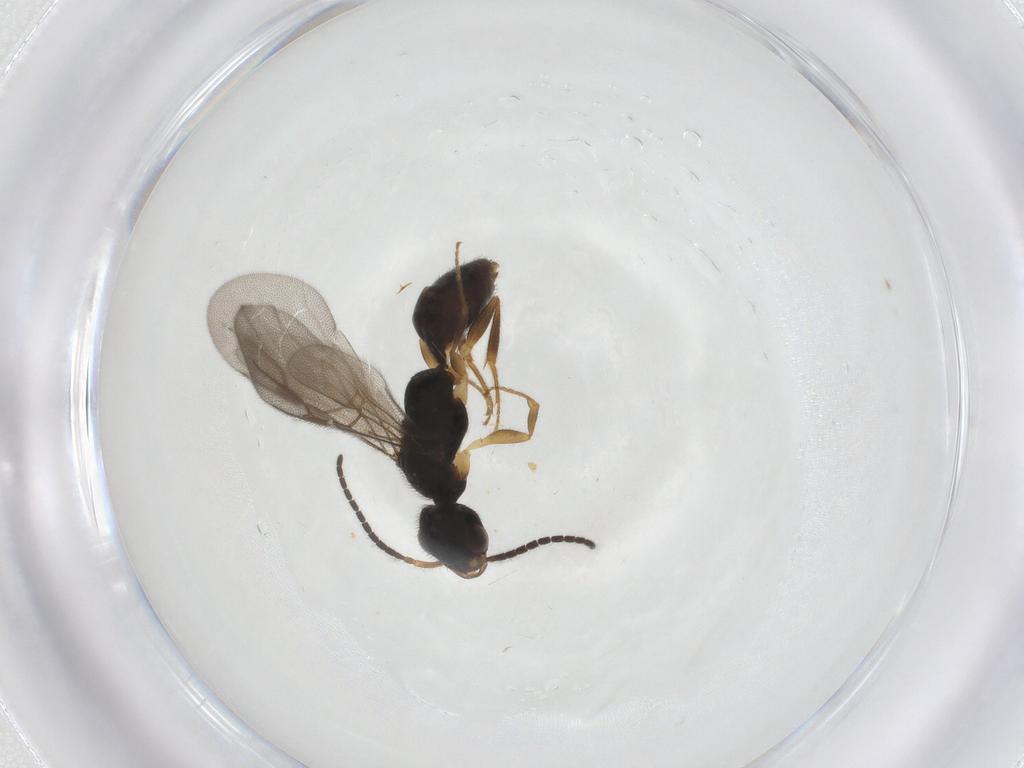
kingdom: Animalia
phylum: Arthropoda
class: Insecta
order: Hymenoptera
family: Bethylidae
